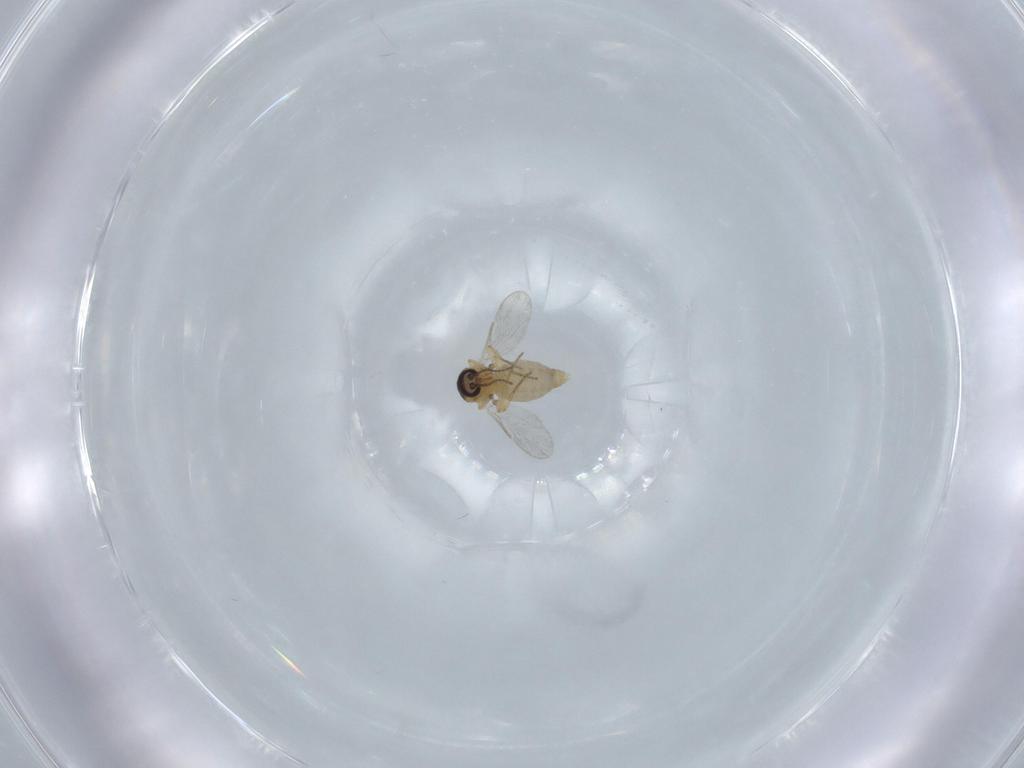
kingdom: Animalia
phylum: Arthropoda
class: Insecta
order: Diptera
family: Ceratopogonidae
